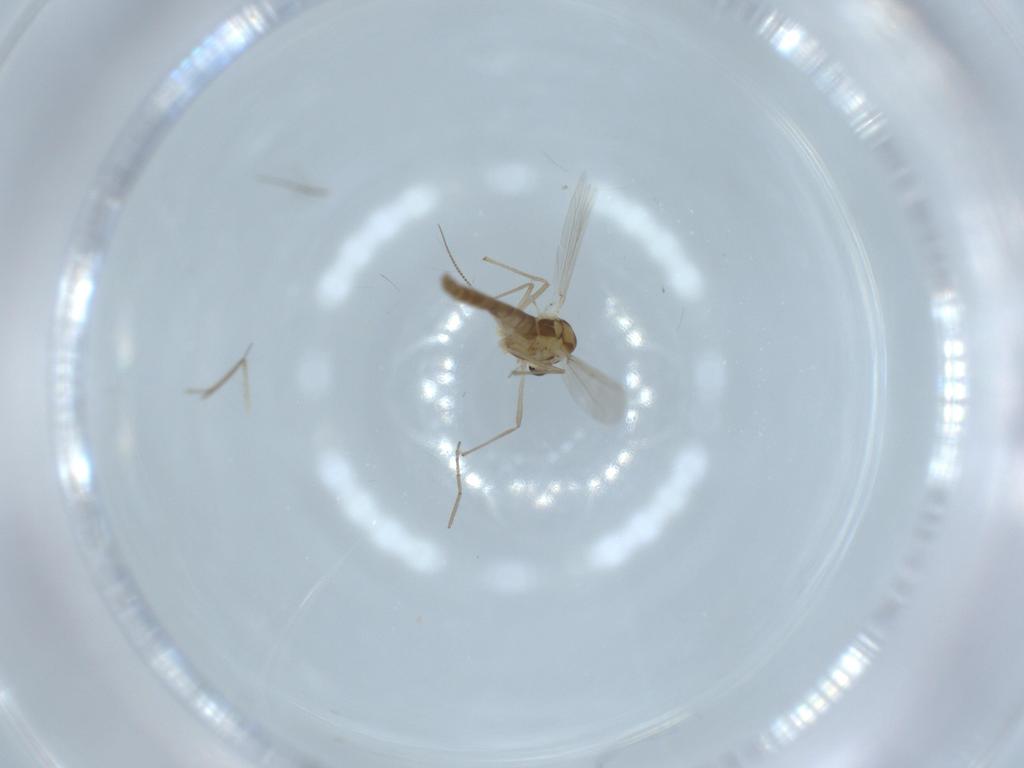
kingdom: Animalia
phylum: Arthropoda
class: Insecta
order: Diptera
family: Chironomidae
